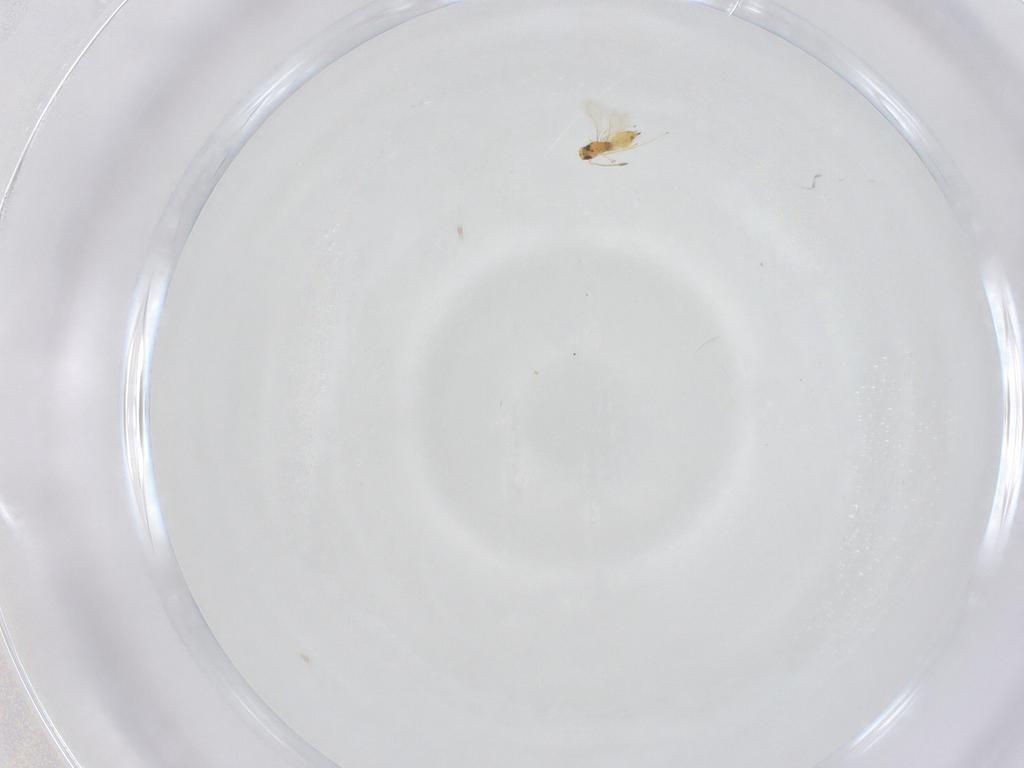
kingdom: Animalia
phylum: Arthropoda
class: Insecta
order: Hymenoptera
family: Mymaridae
